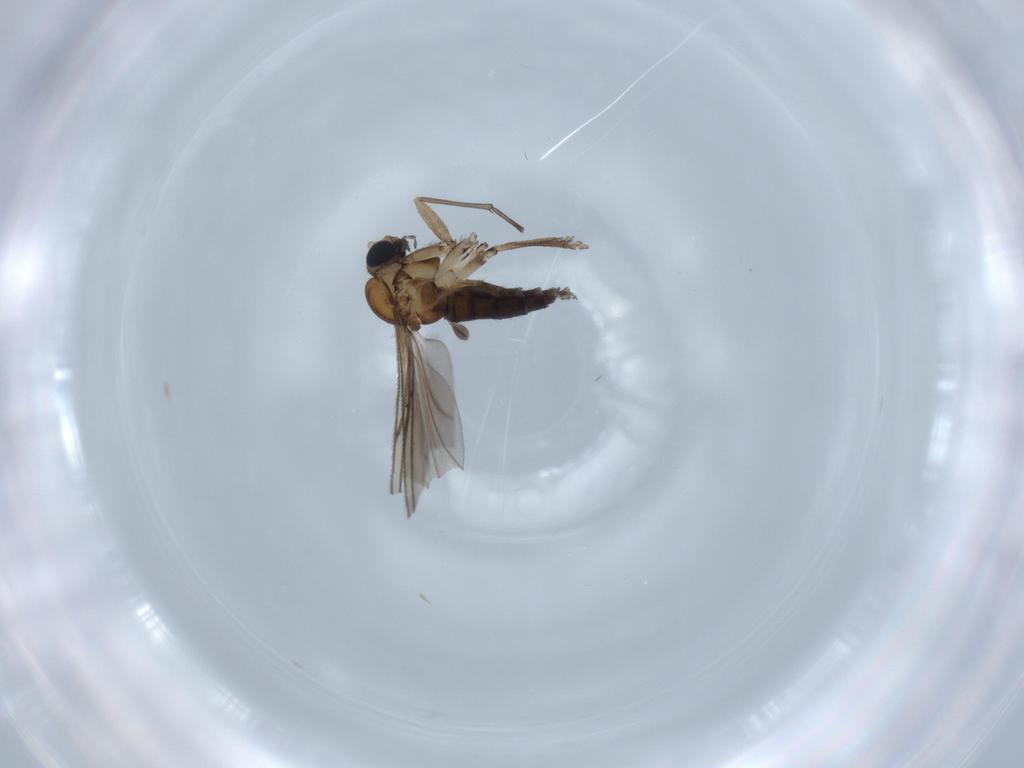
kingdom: Animalia
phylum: Arthropoda
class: Insecta
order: Diptera
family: Sciaridae
